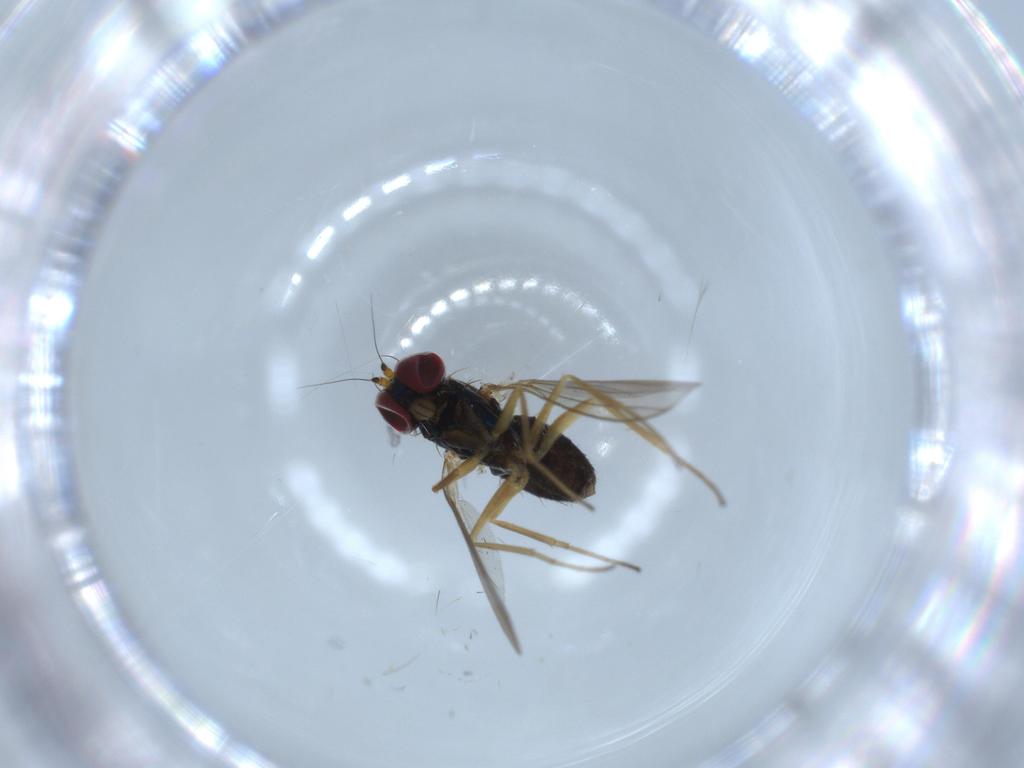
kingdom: Animalia
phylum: Arthropoda
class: Insecta
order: Diptera
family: Dolichopodidae
